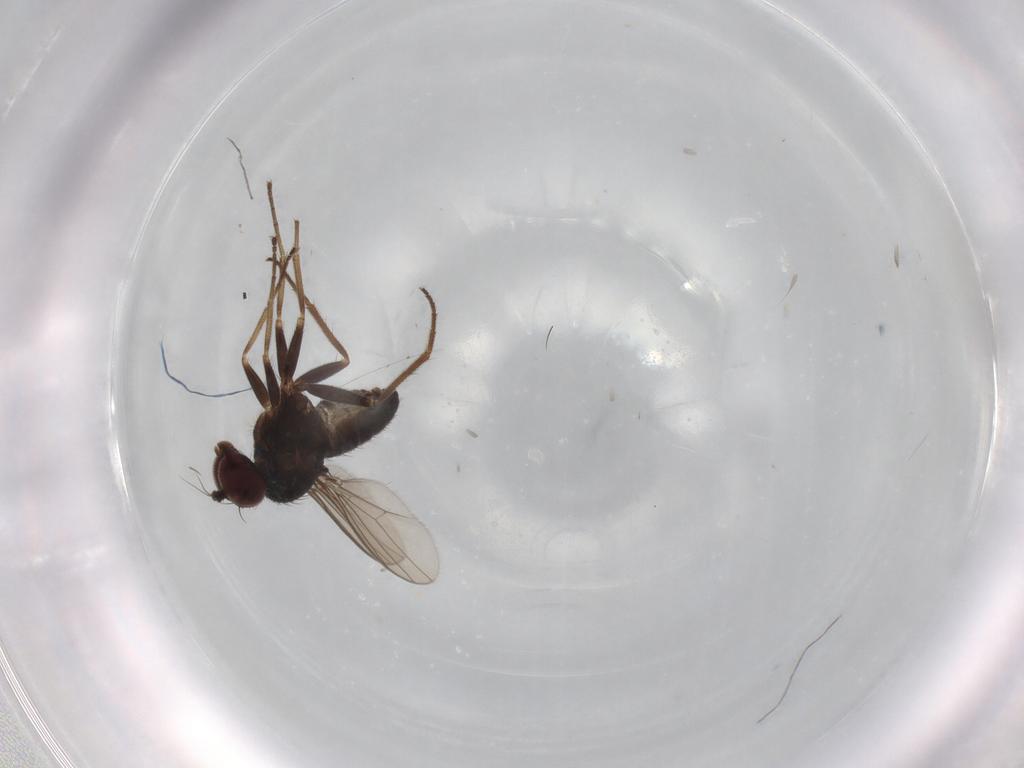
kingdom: Animalia
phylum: Arthropoda
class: Insecta
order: Diptera
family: Dolichopodidae
